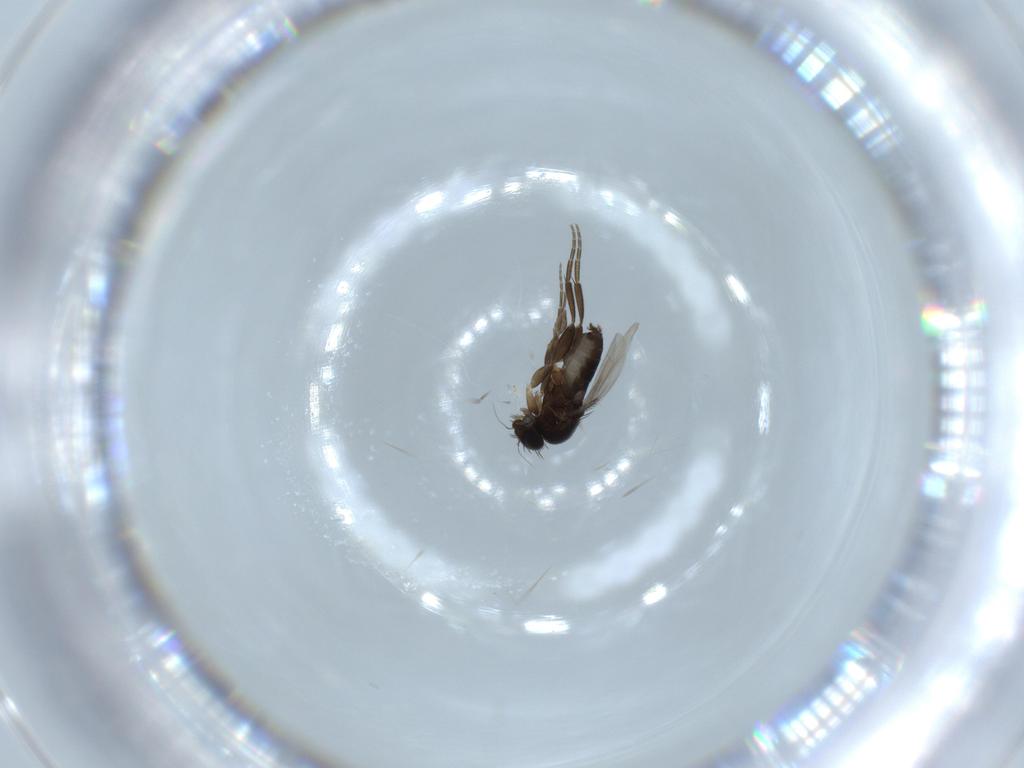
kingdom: Animalia
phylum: Arthropoda
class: Insecta
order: Diptera
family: Phoridae
